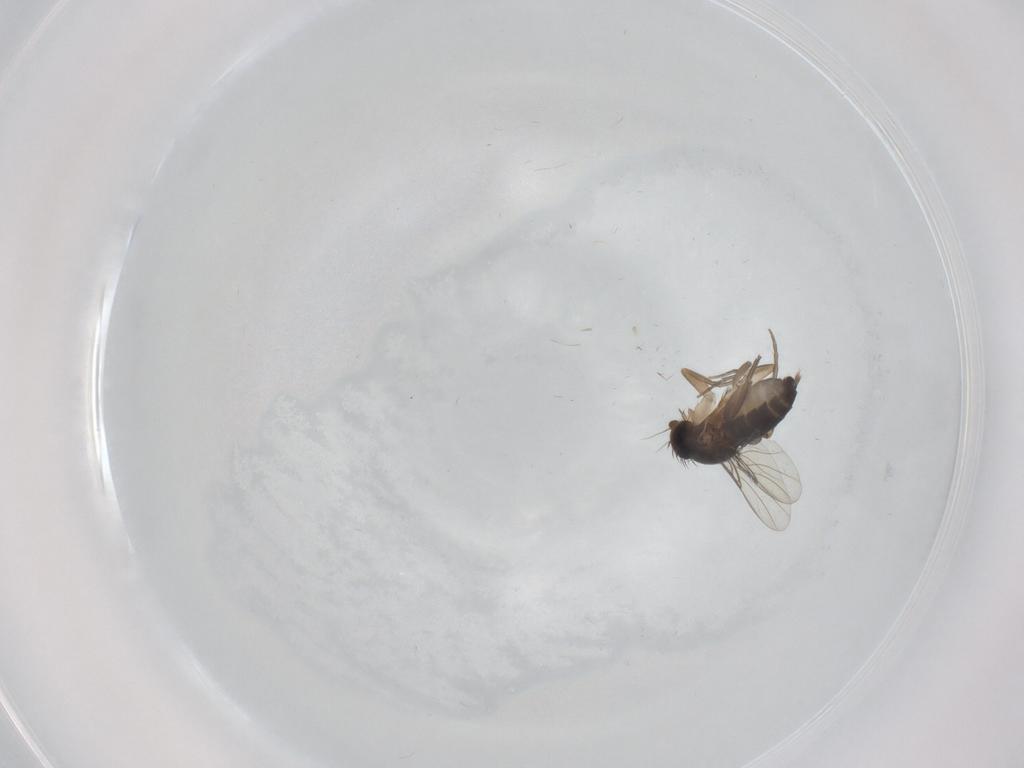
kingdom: Animalia
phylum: Arthropoda
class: Insecta
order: Diptera
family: Phoridae
